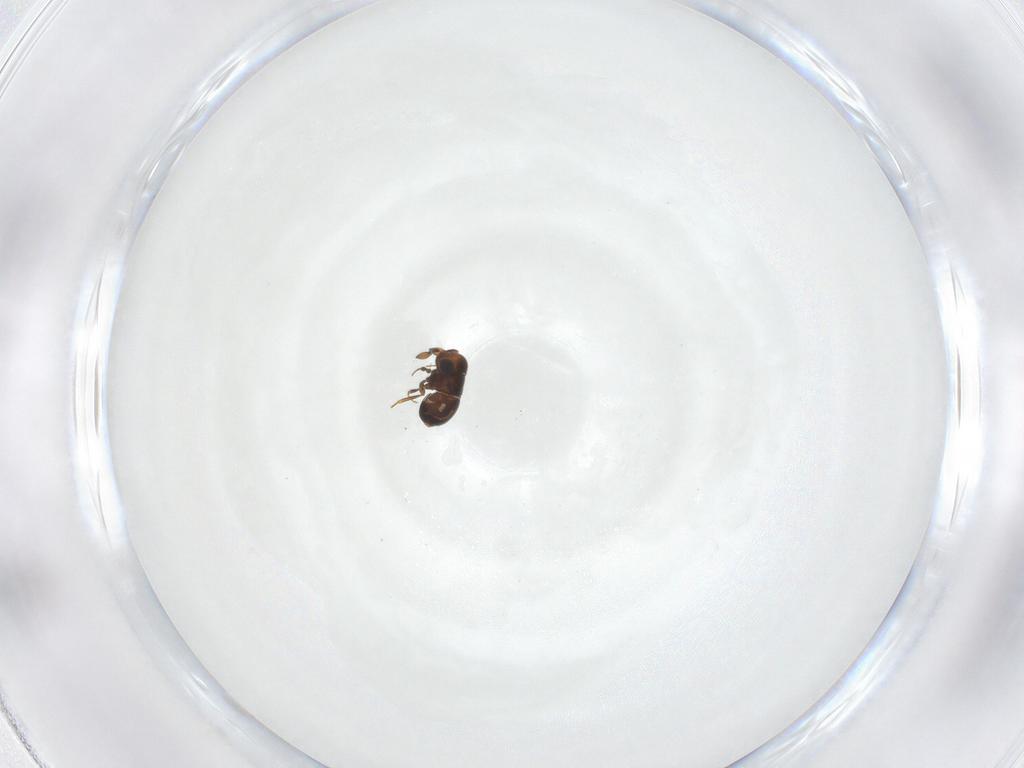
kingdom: Animalia
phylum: Arthropoda
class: Insecta
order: Hymenoptera
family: Scelionidae
